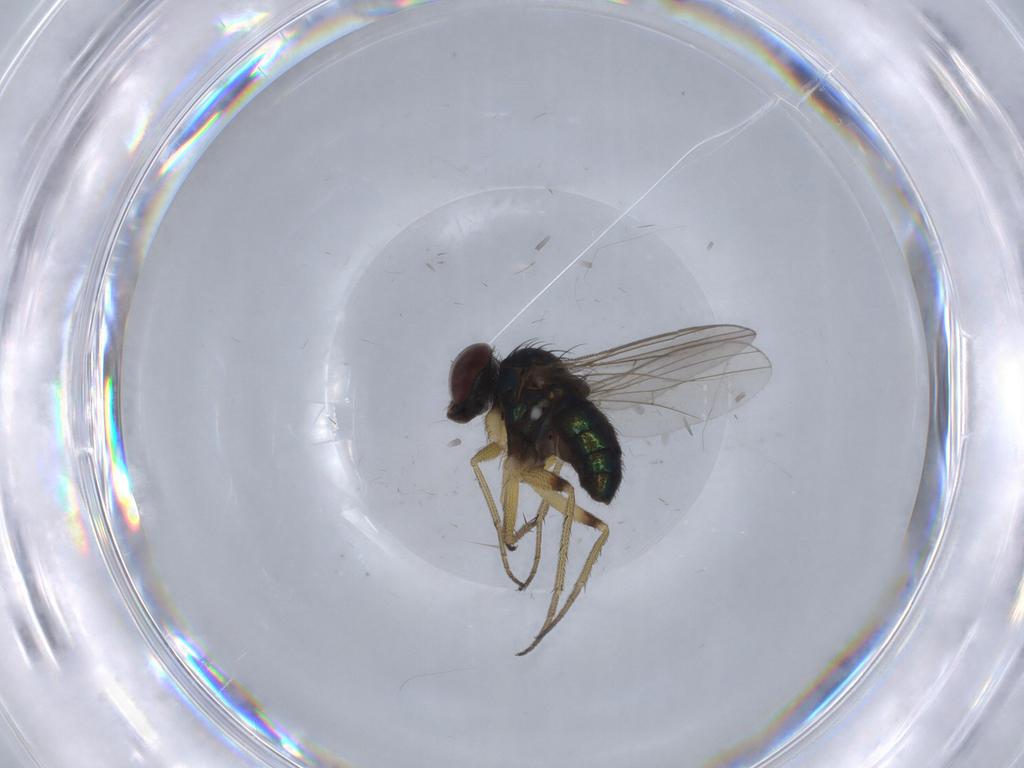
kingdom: Animalia
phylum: Arthropoda
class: Insecta
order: Diptera
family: Dolichopodidae
